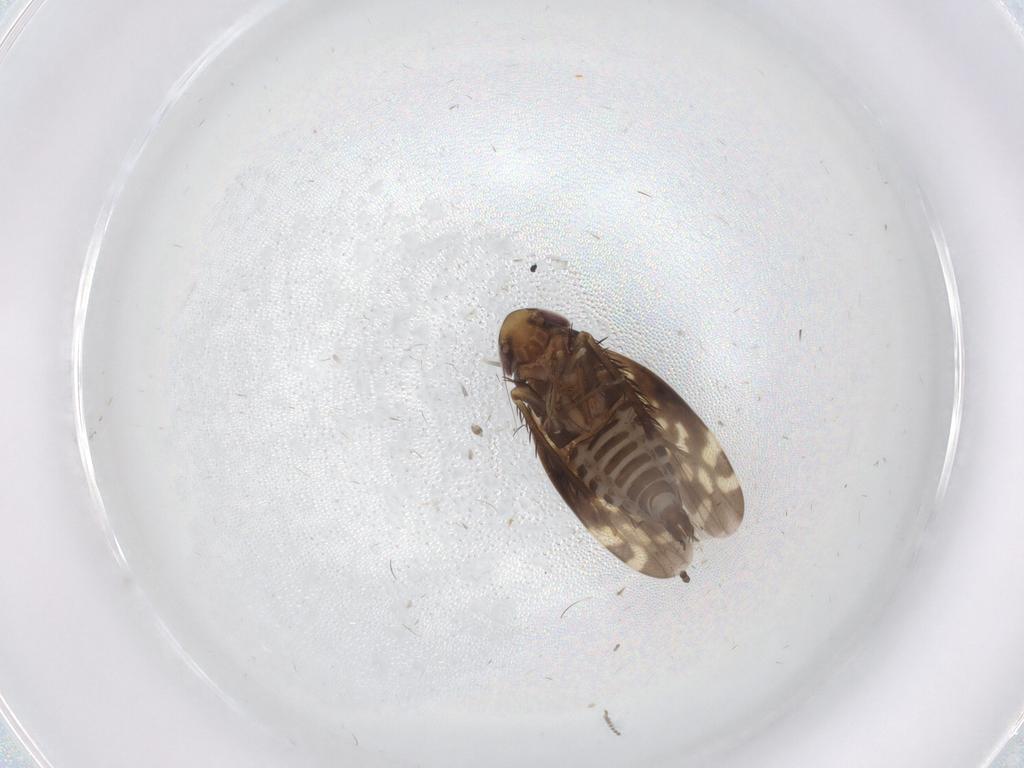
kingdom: Animalia
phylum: Arthropoda
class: Insecta
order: Hemiptera
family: Cicadellidae
